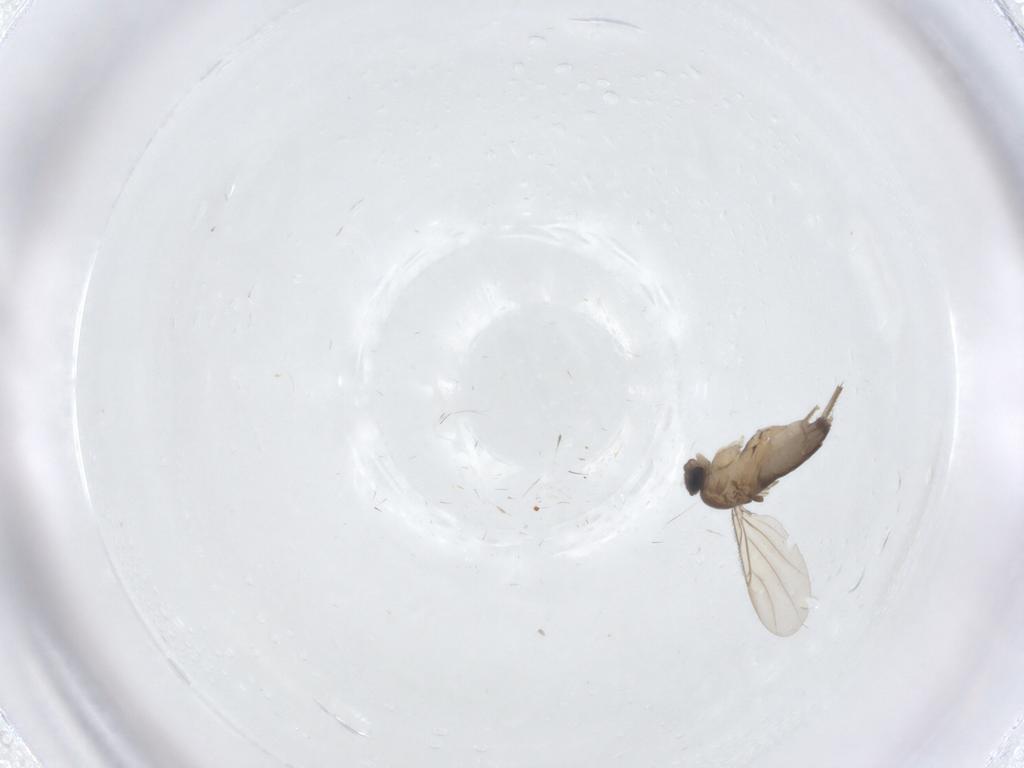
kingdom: Animalia
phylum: Arthropoda
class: Insecta
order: Diptera
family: Phoridae
